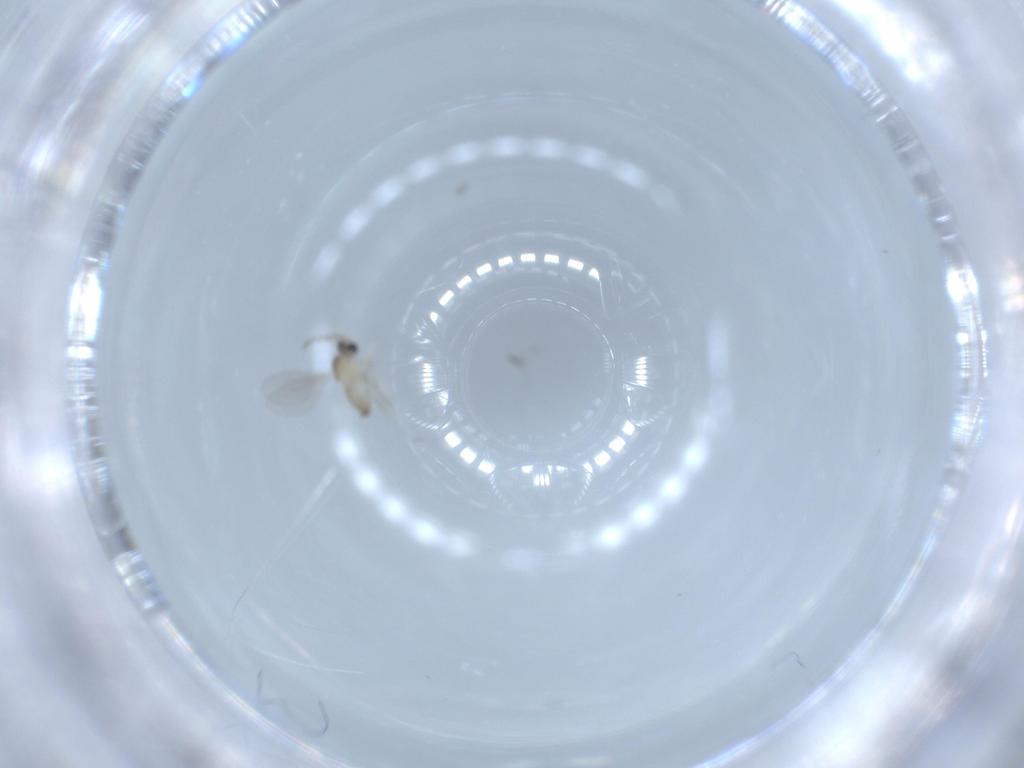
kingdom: Animalia
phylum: Arthropoda
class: Insecta
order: Diptera
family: Cecidomyiidae
